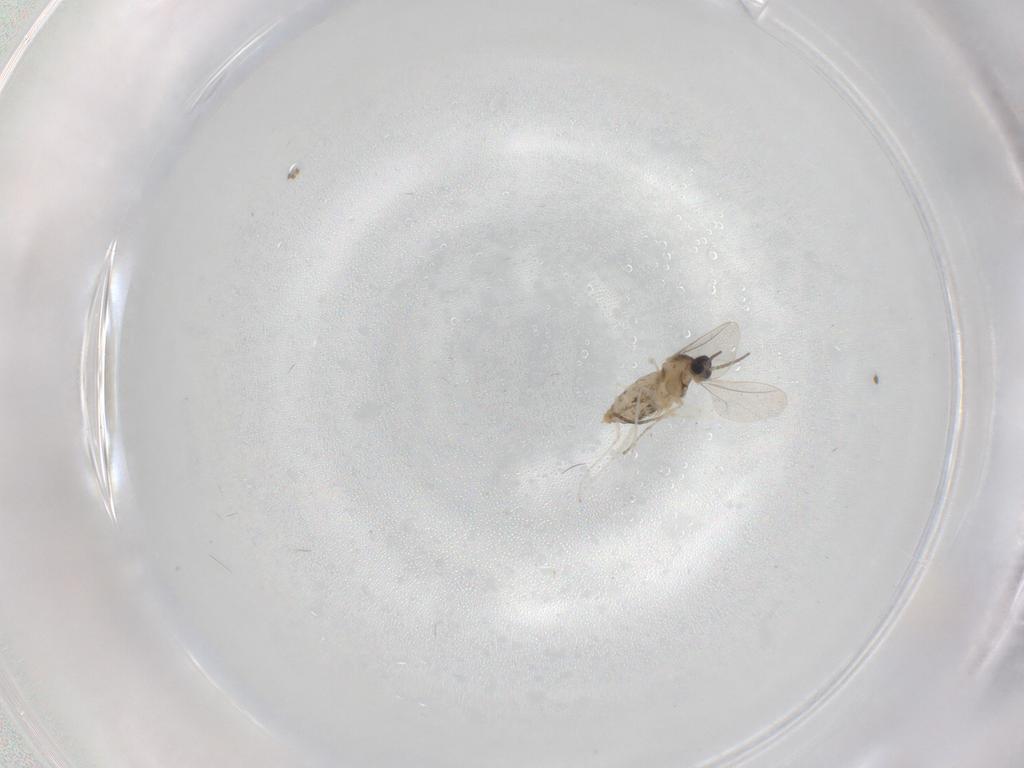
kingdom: Animalia
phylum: Arthropoda
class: Insecta
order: Diptera
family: Cecidomyiidae
